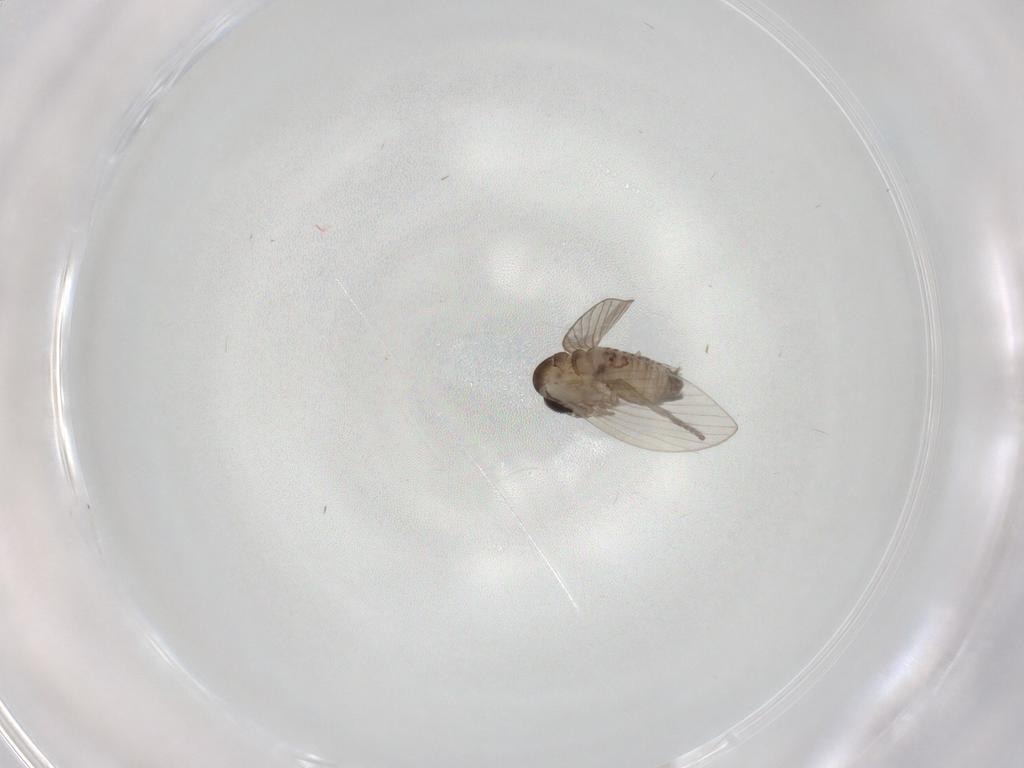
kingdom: Animalia
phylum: Arthropoda
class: Insecta
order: Diptera
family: Psychodidae
